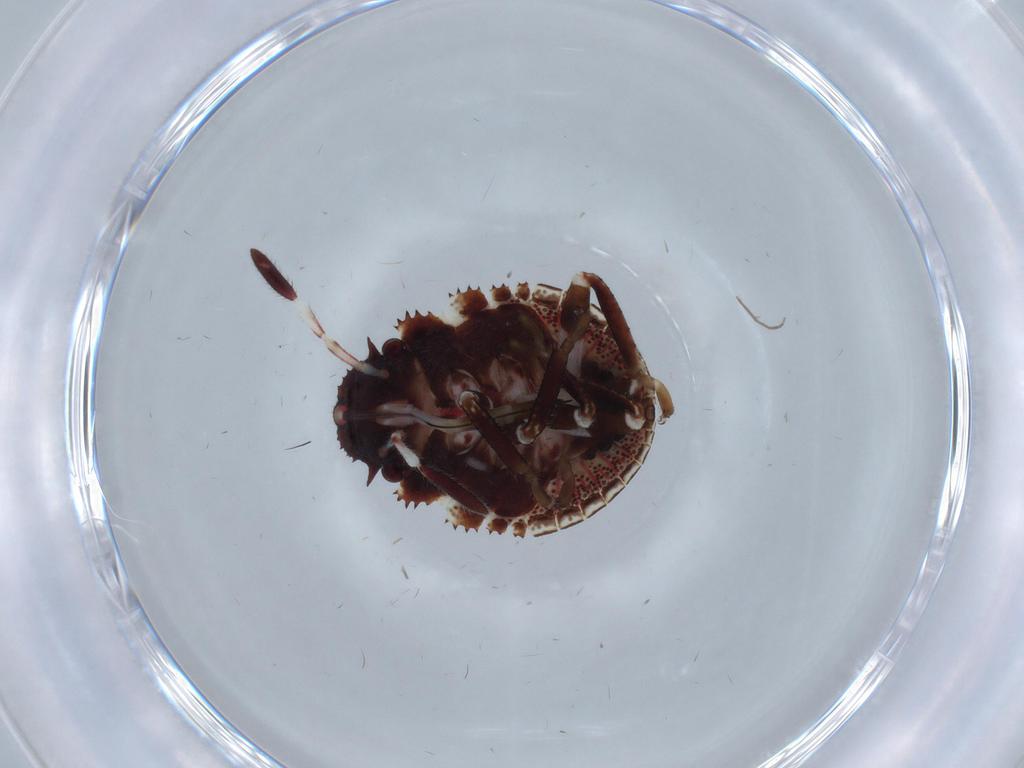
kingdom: Animalia
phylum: Arthropoda
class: Insecta
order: Hemiptera
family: Scutelleridae
